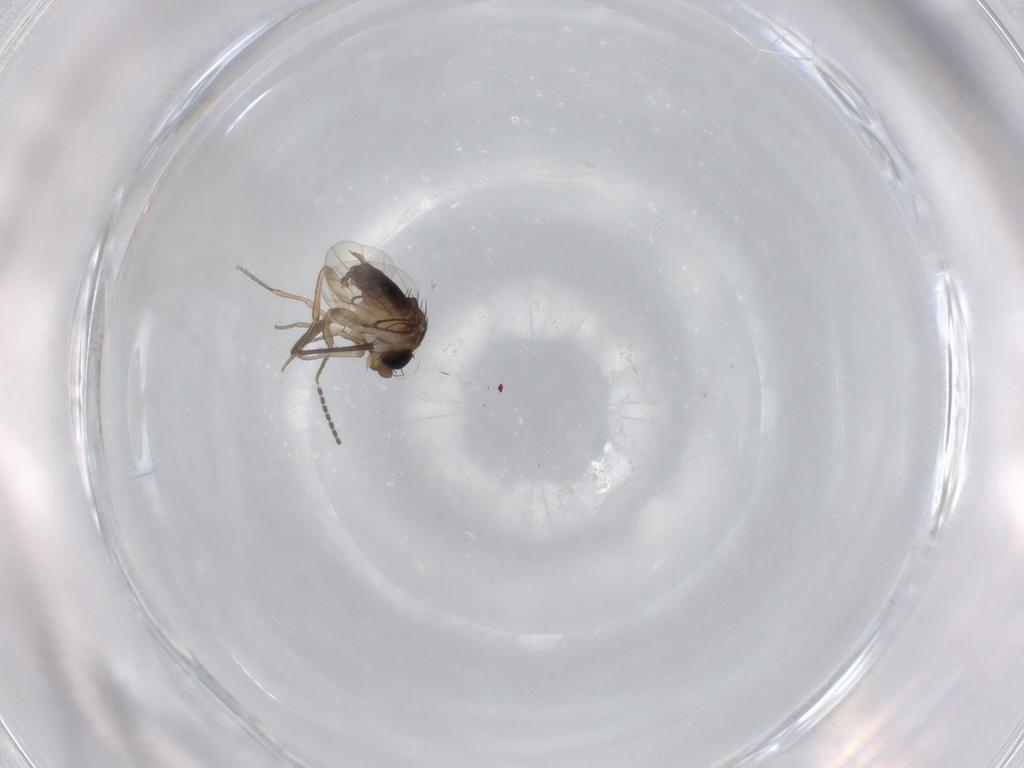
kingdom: Animalia
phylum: Arthropoda
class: Insecta
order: Diptera
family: Sciaridae
